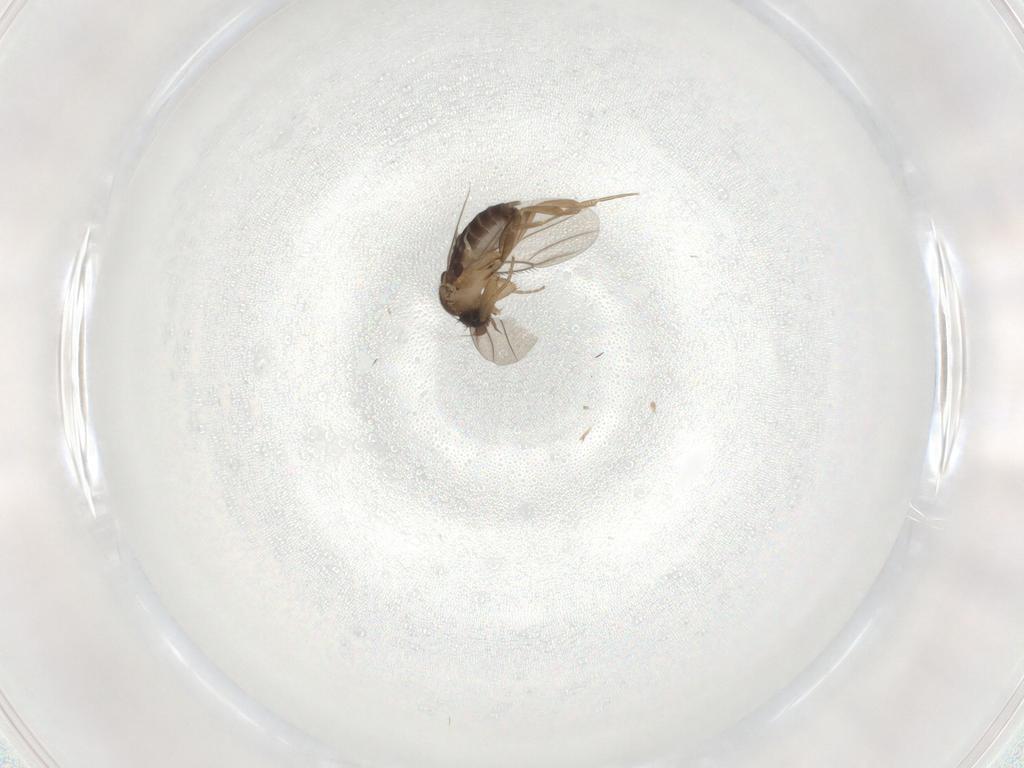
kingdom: Animalia
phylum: Arthropoda
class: Insecta
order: Diptera
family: Phoridae
